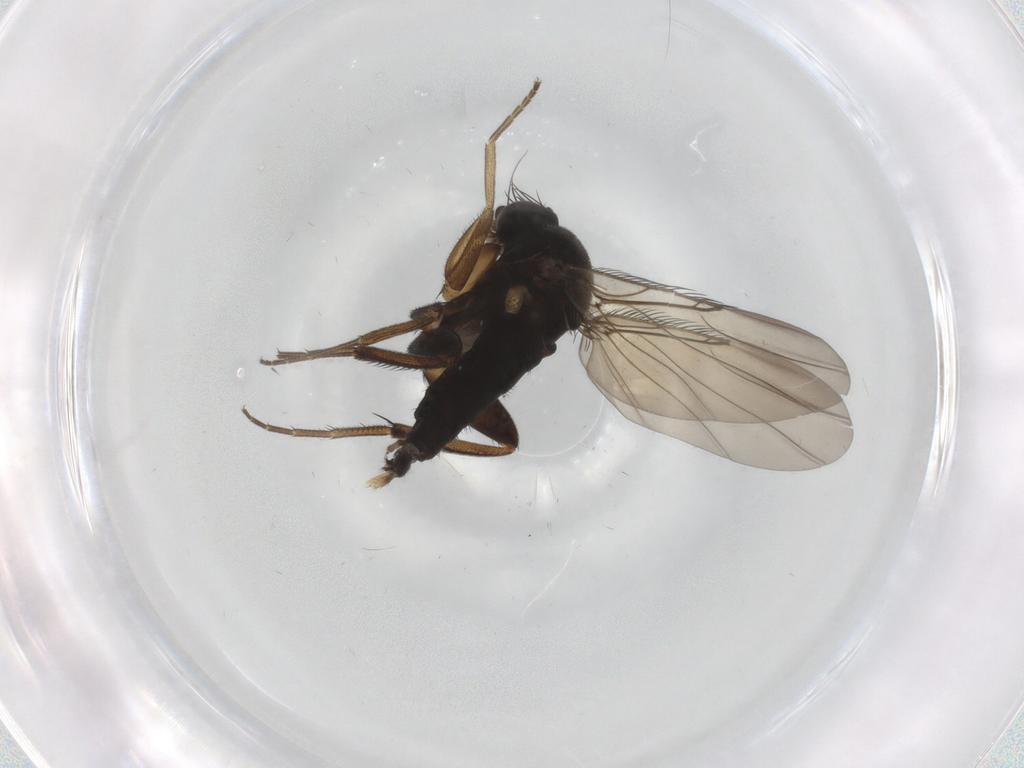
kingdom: Animalia
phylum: Arthropoda
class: Insecta
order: Diptera
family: Phoridae
